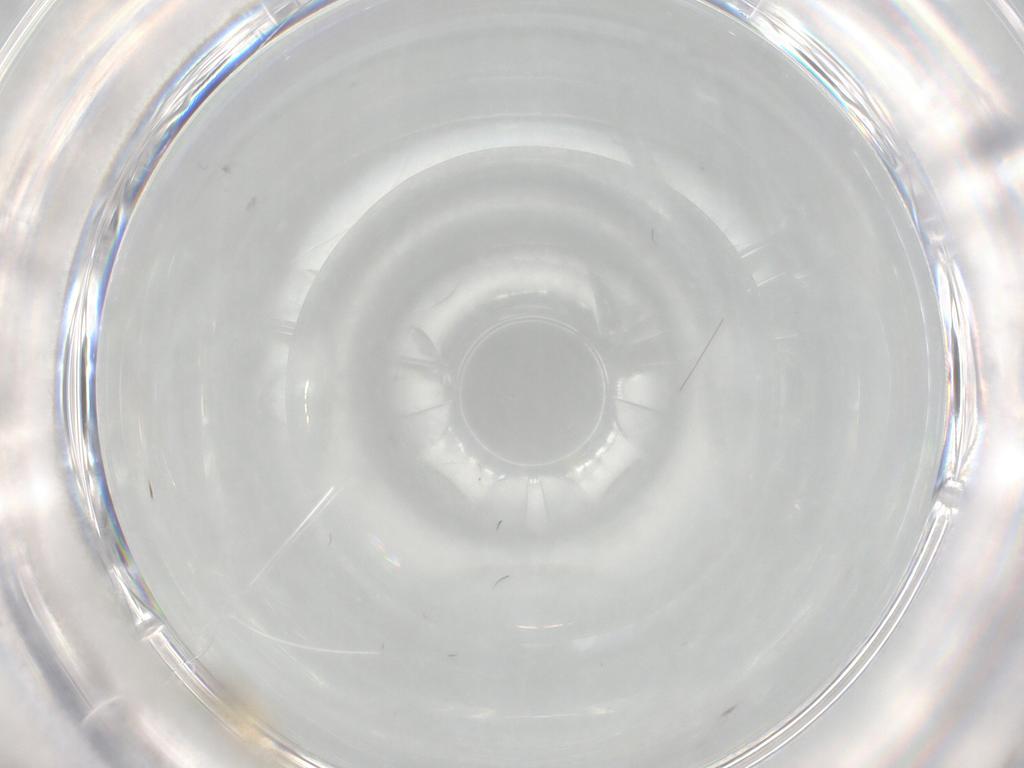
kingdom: Animalia
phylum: Arthropoda
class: Insecta
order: Diptera
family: Cecidomyiidae
